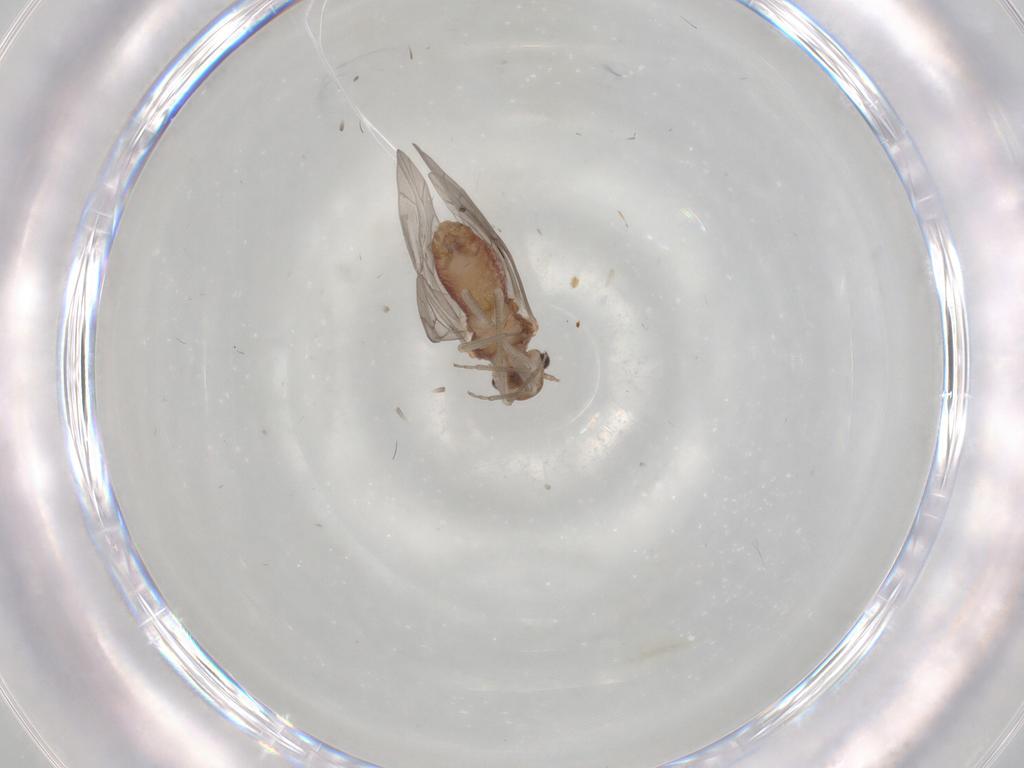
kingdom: Animalia
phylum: Arthropoda
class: Insecta
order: Psocodea
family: Lachesillidae
